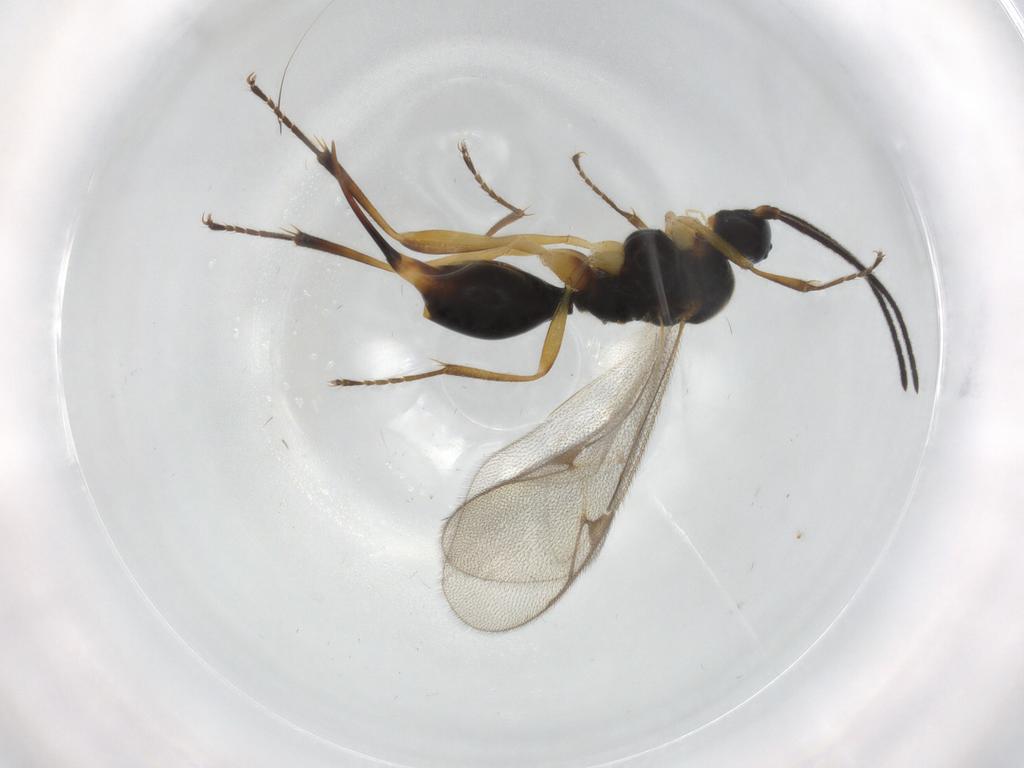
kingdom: Animalia
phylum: Arthropoda
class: Insecta
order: Hymenoptera
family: Proctotrupidae
